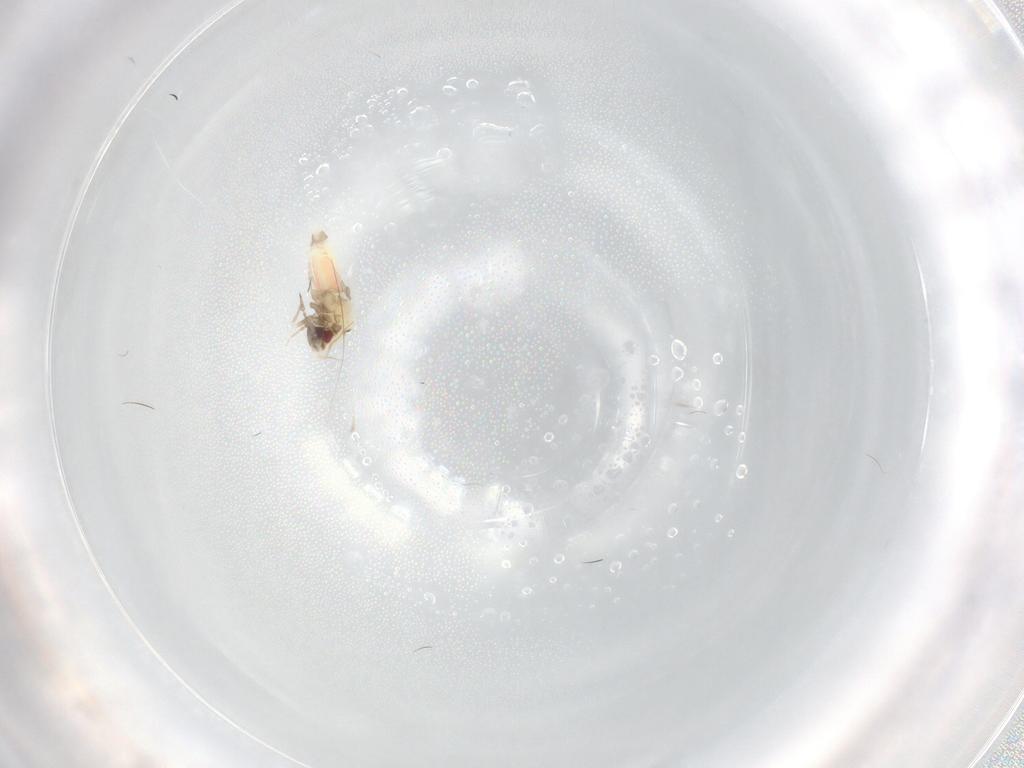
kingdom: Animalia
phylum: Arthropoda
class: Insecta
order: Hemiptera
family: Aleyrodidae
